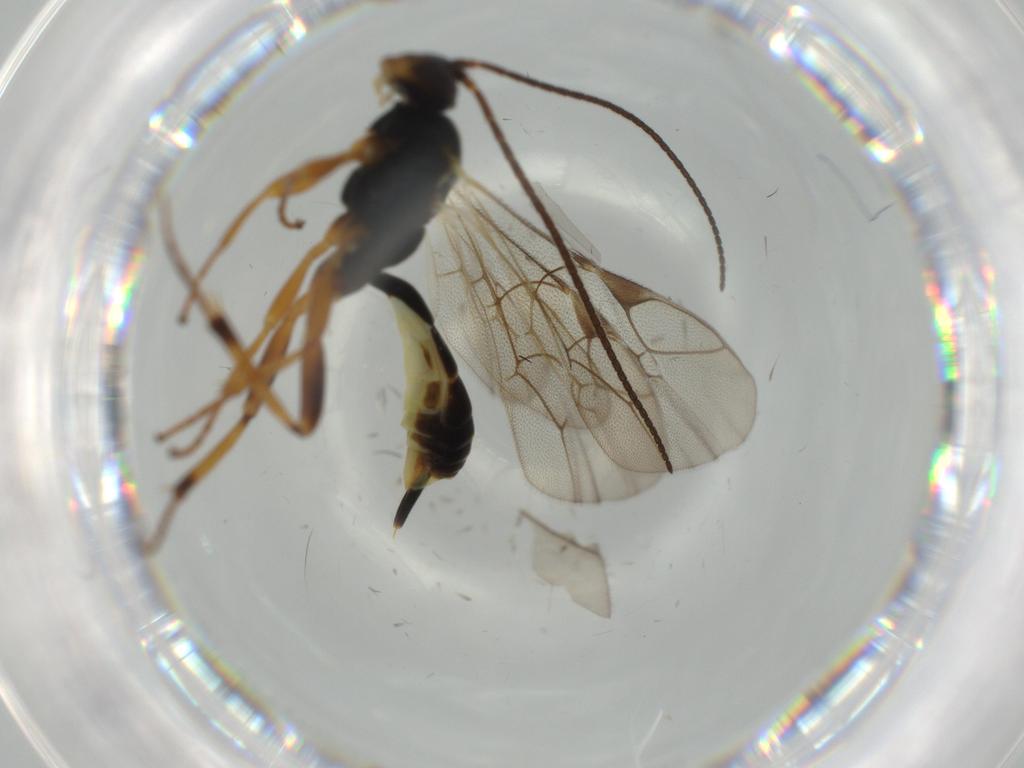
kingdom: Animalia
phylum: Arthropoda
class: Insecta
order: Hymenoptera
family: Ichneumonidae
